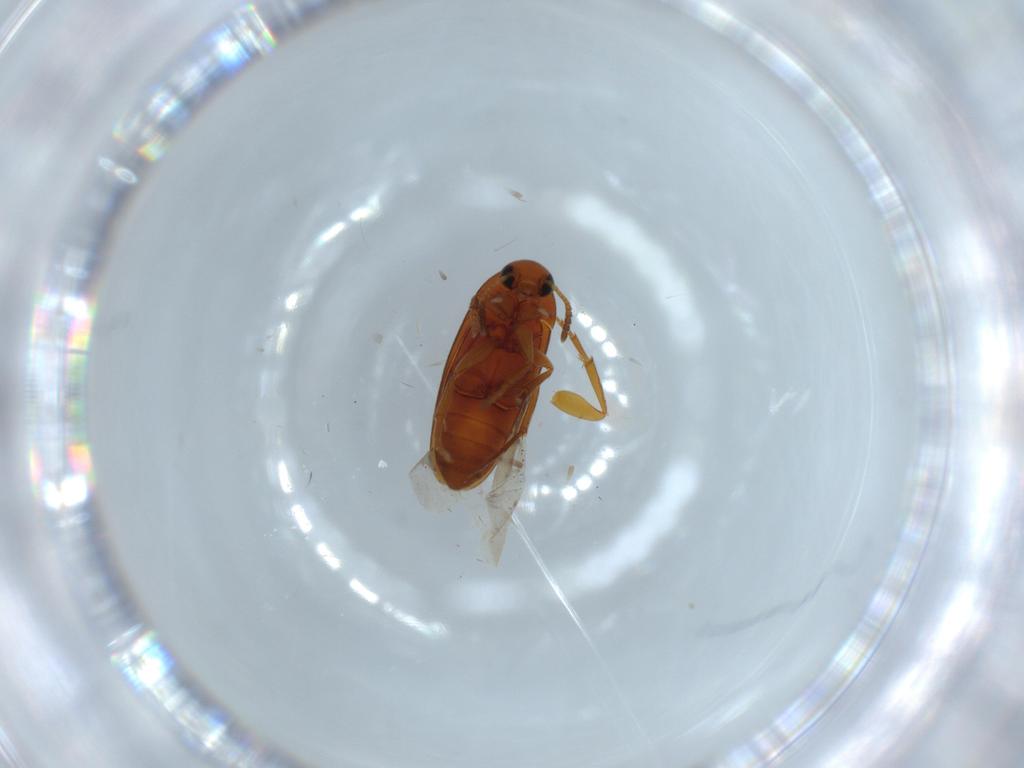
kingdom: Animalia
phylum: Arthropoda
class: Insecta
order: Coleoptera
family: Scraptiidae
